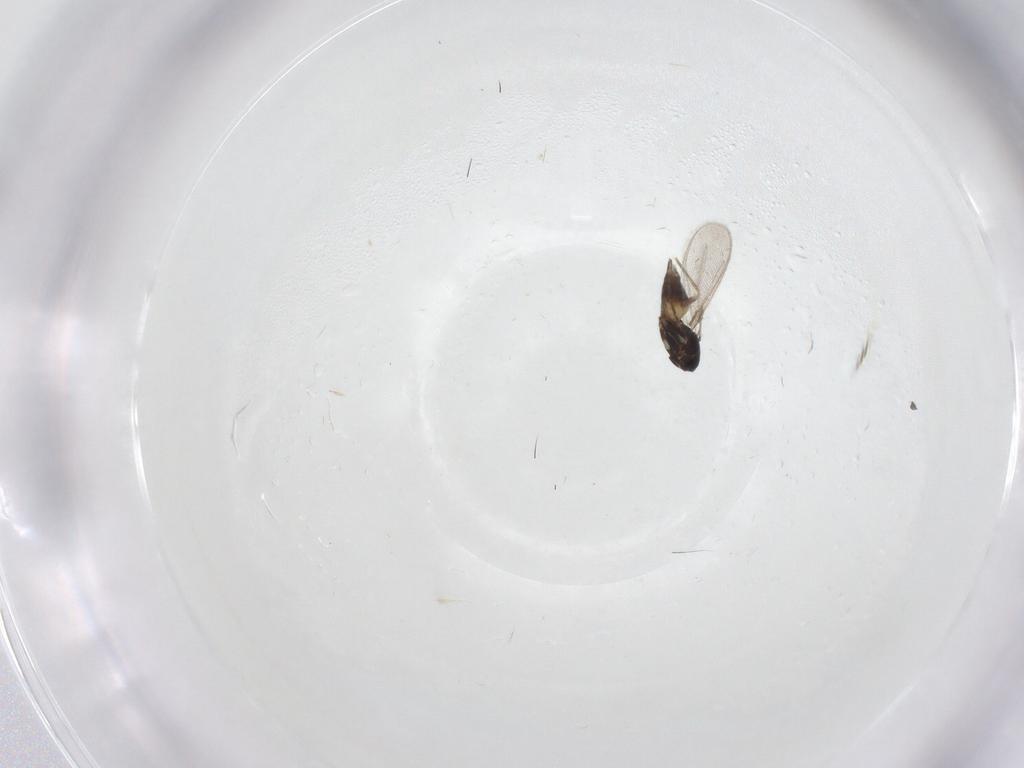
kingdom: Animalia
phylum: Arthropoda
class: Insecta
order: Hymenoptera
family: Mymaridae
